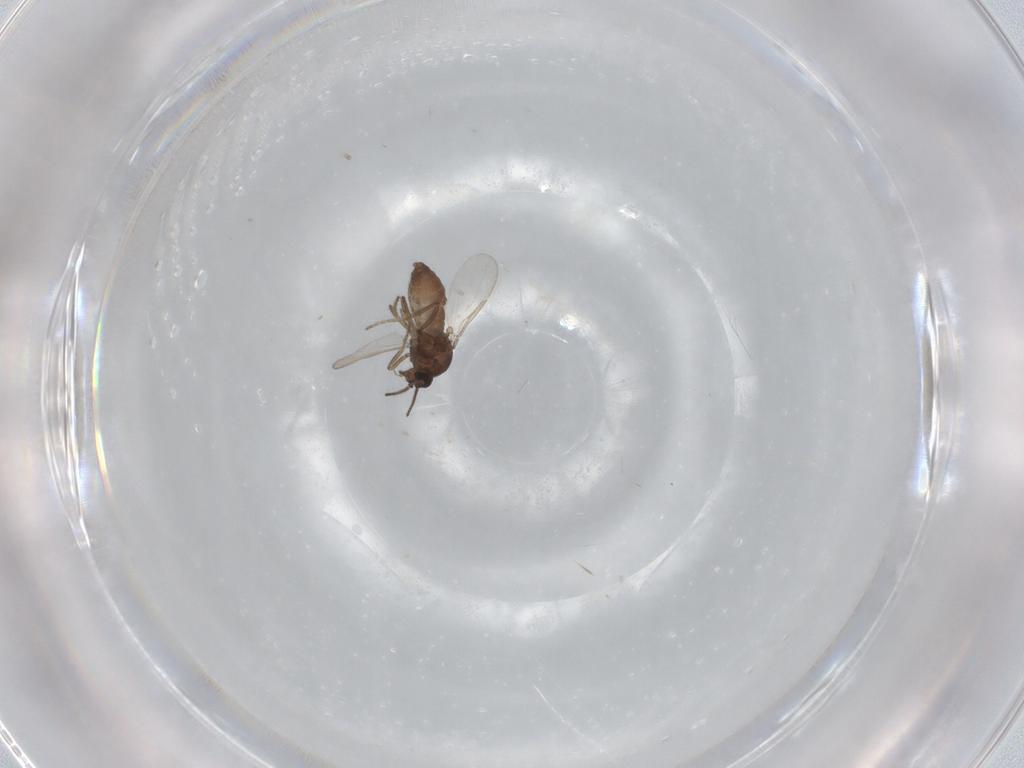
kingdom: Animalia
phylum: Arthropoda
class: Insecta
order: Diptera
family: Ceratopogonidae
